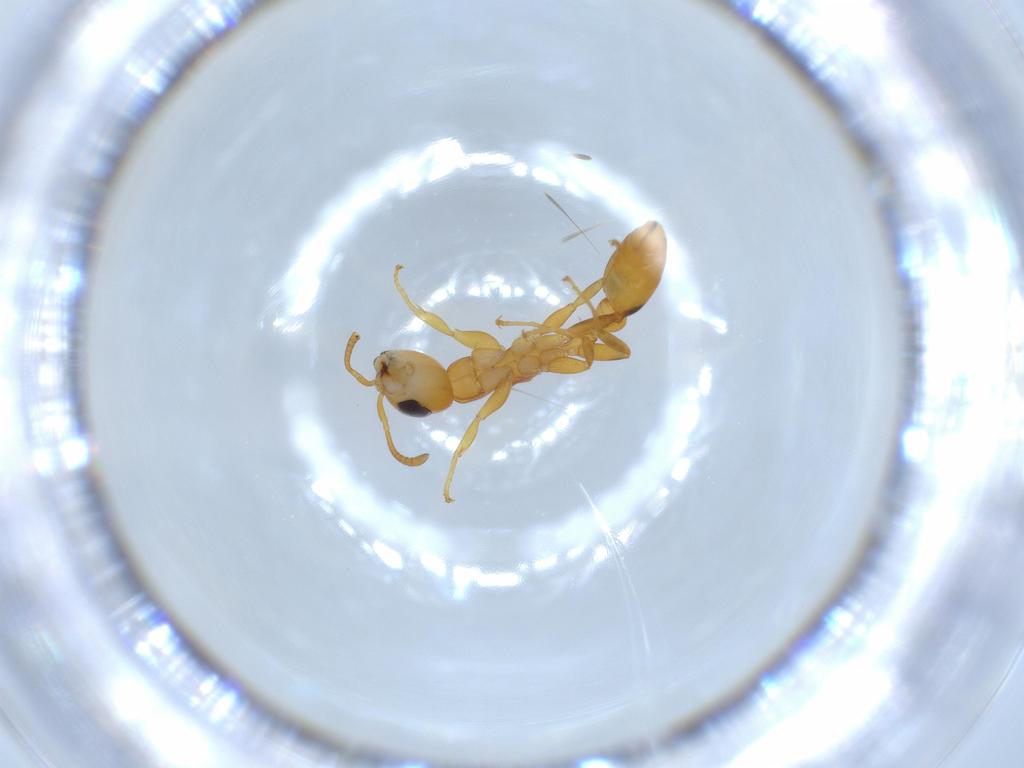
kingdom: Animalia
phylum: Arthropoda
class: Insecta
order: Hymenoptera
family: Formicidae
